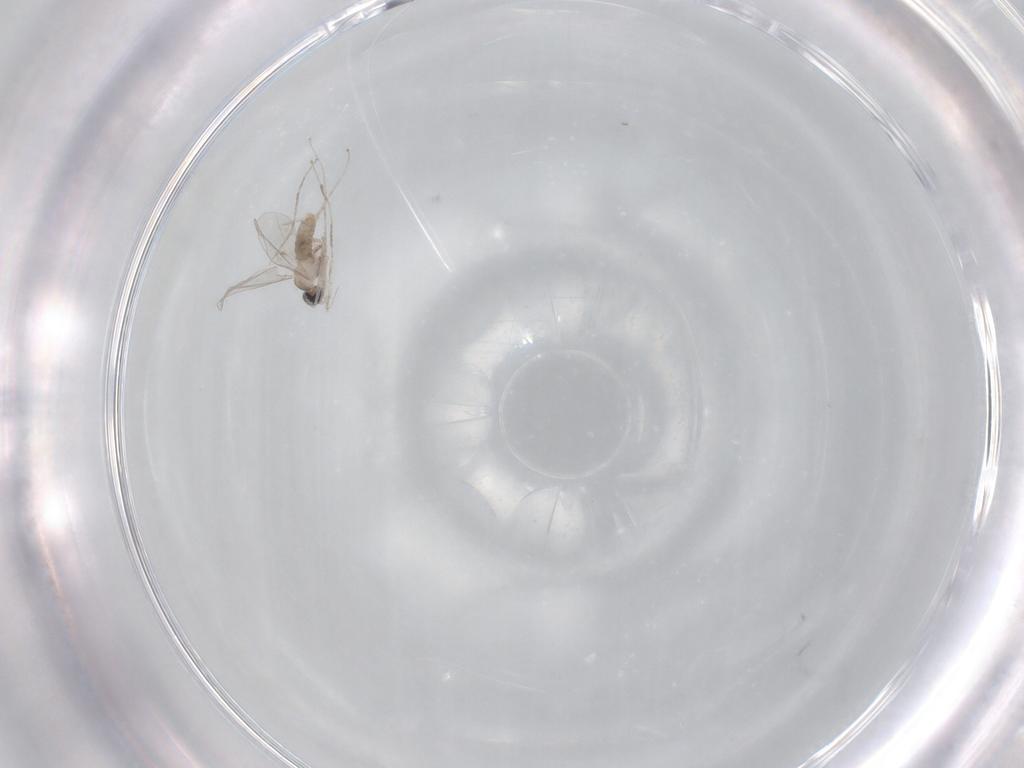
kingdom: Animalia
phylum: Arthropoda
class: Insecta
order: Diptera
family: Cecidomyiidae
